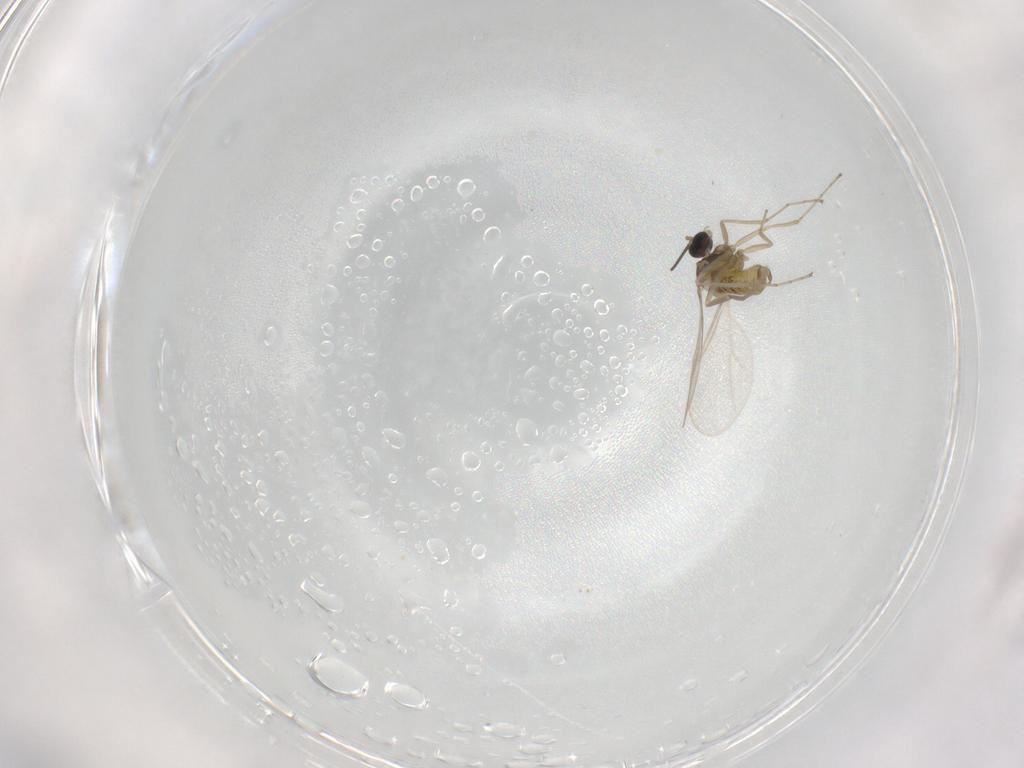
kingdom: Animalia
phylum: Arthropoda
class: Insecta
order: Diptera
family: Cecidomyiidae
